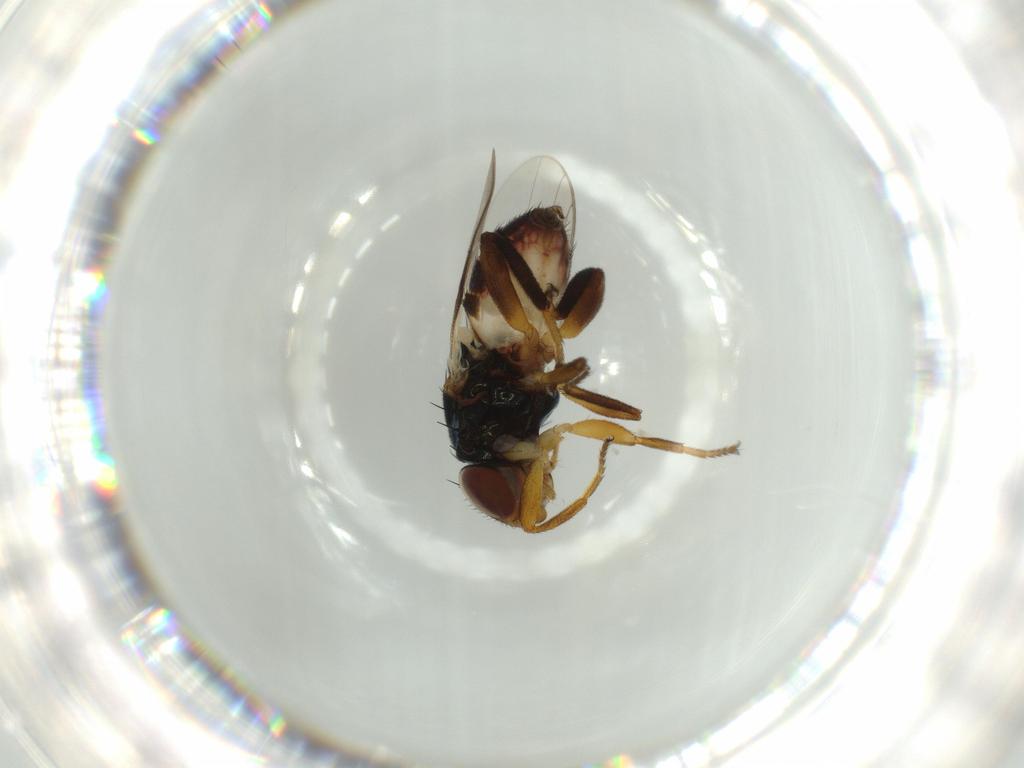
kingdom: Animalia
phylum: Arthropoda
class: Insecta
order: Diptera
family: Chloropidae
